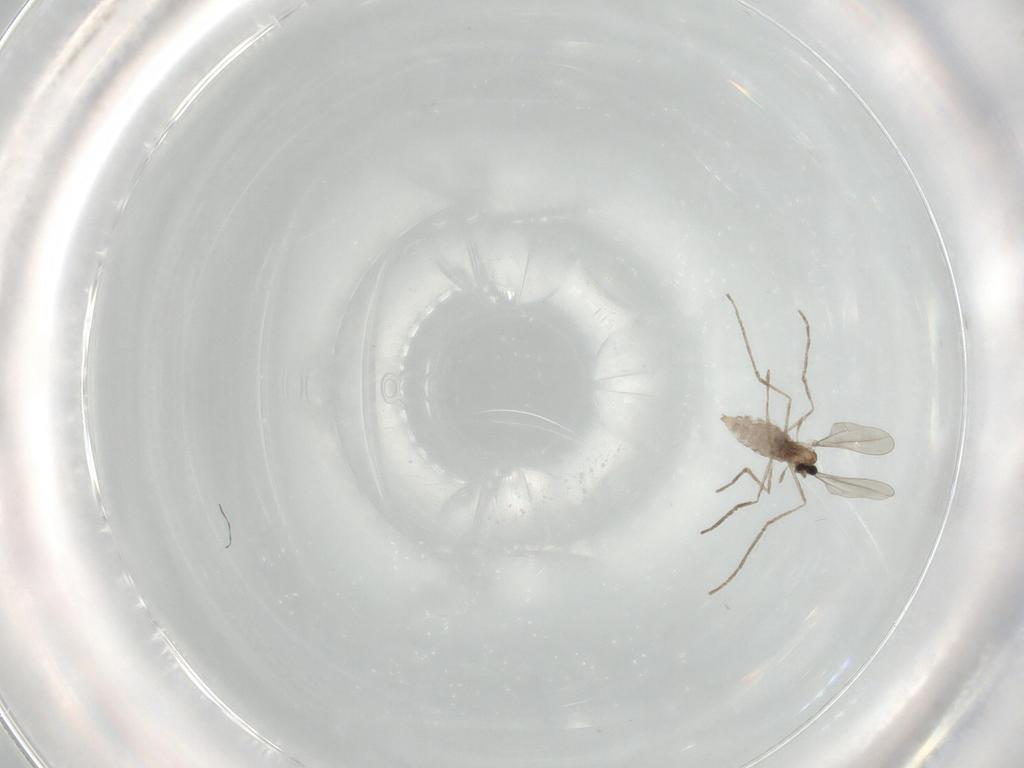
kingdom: Animalia
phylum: Arthropoda
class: Insecta
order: Diptera
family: Cecidomyiidae
